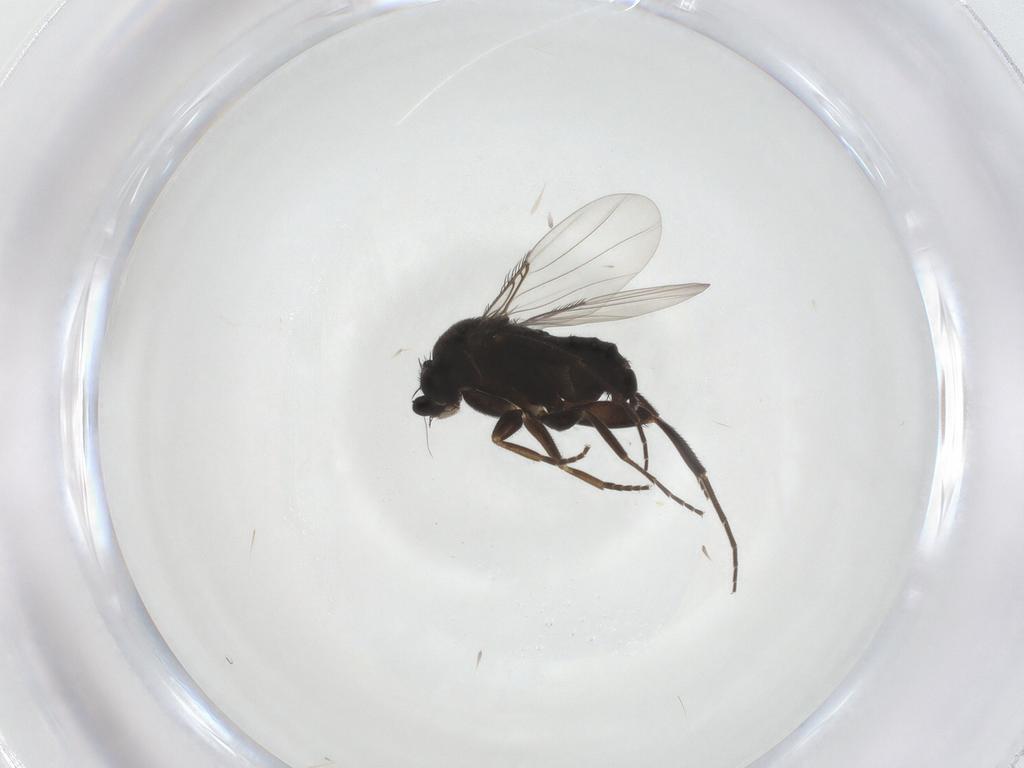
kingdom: Animalia
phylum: Arthropoda
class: Insecta
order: Diptera
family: Phoridae
